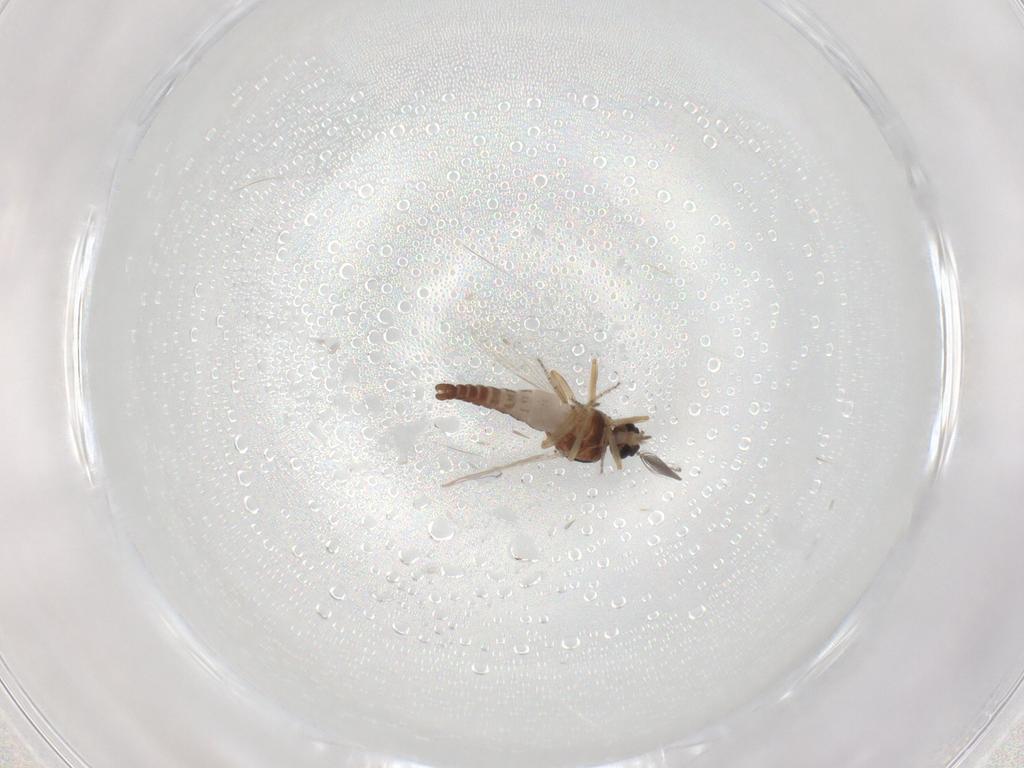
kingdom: Animalia
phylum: Arthropoda
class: Insecta
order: Diptera
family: Ceratopogonidae
